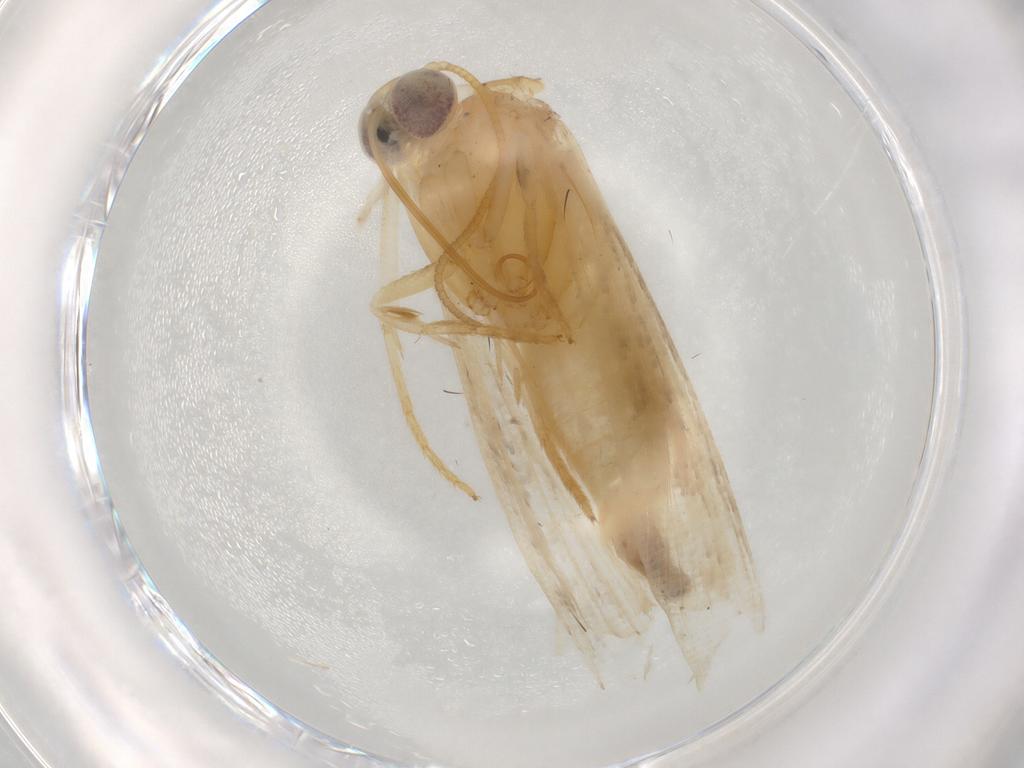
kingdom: Animalia
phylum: Arthropoda
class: Insecta
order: Lepidoptera
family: Noctuidae
